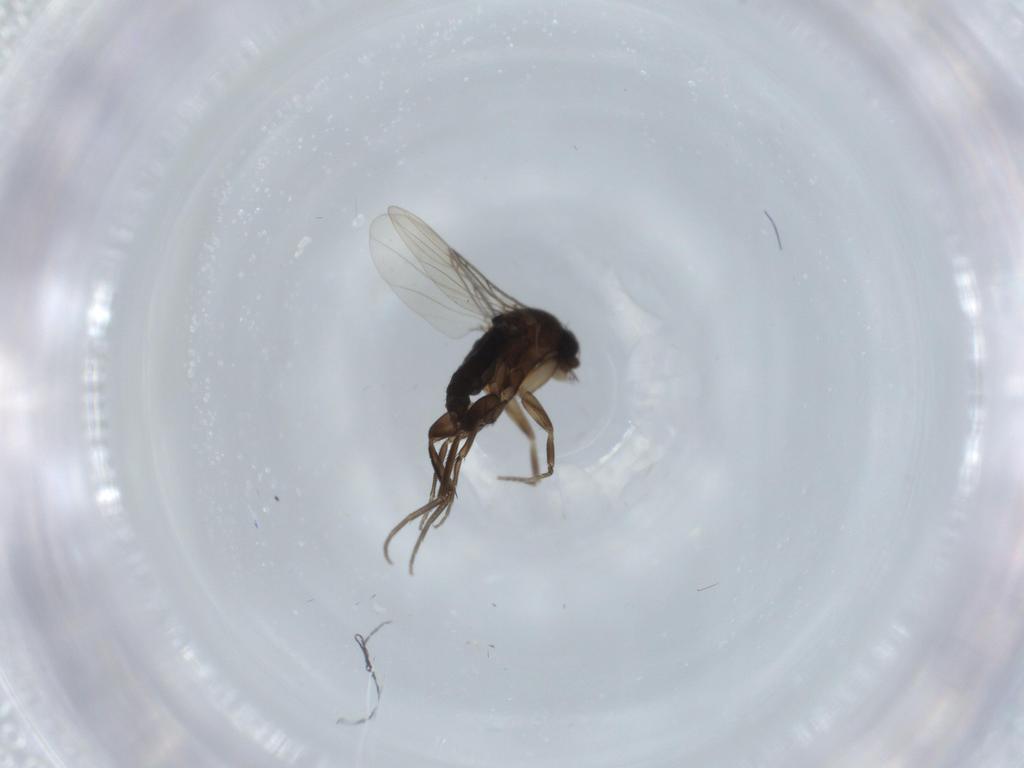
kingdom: Animalia
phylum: Arthropoda
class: Insecta
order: Diptera
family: Phoridae
